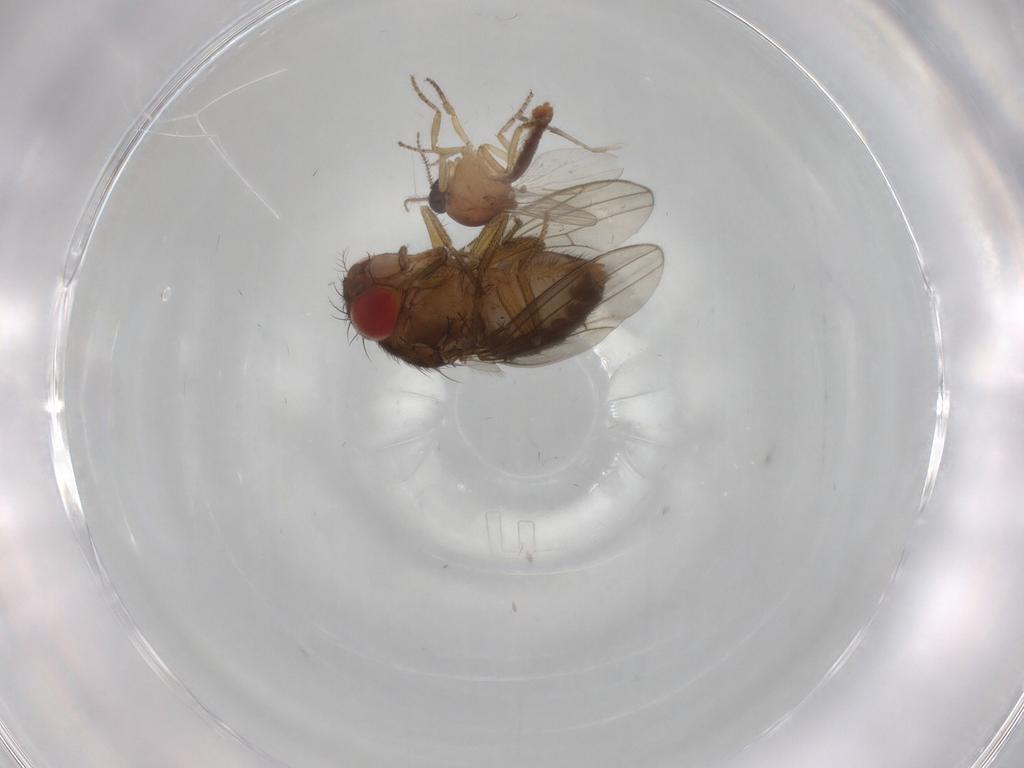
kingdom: Animalia
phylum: Arthropoda
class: Insecta
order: Diptera
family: Drosophilidae
